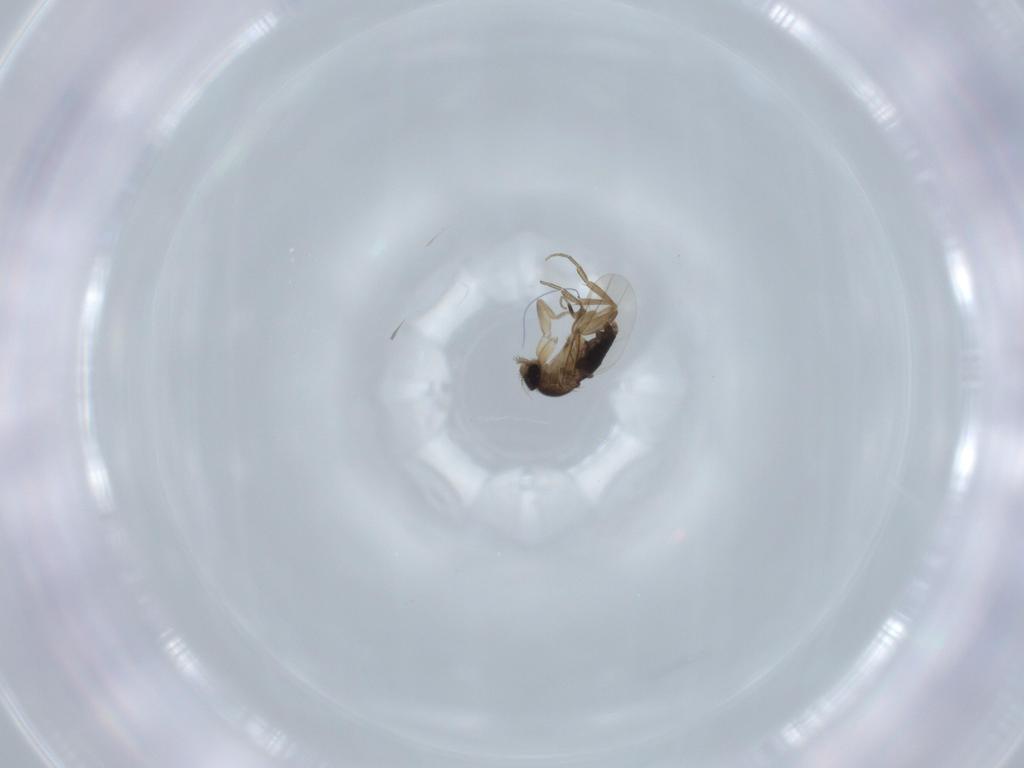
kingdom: Animalia
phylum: Arthropoda
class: Insecta
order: Diptera
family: Phoridae
